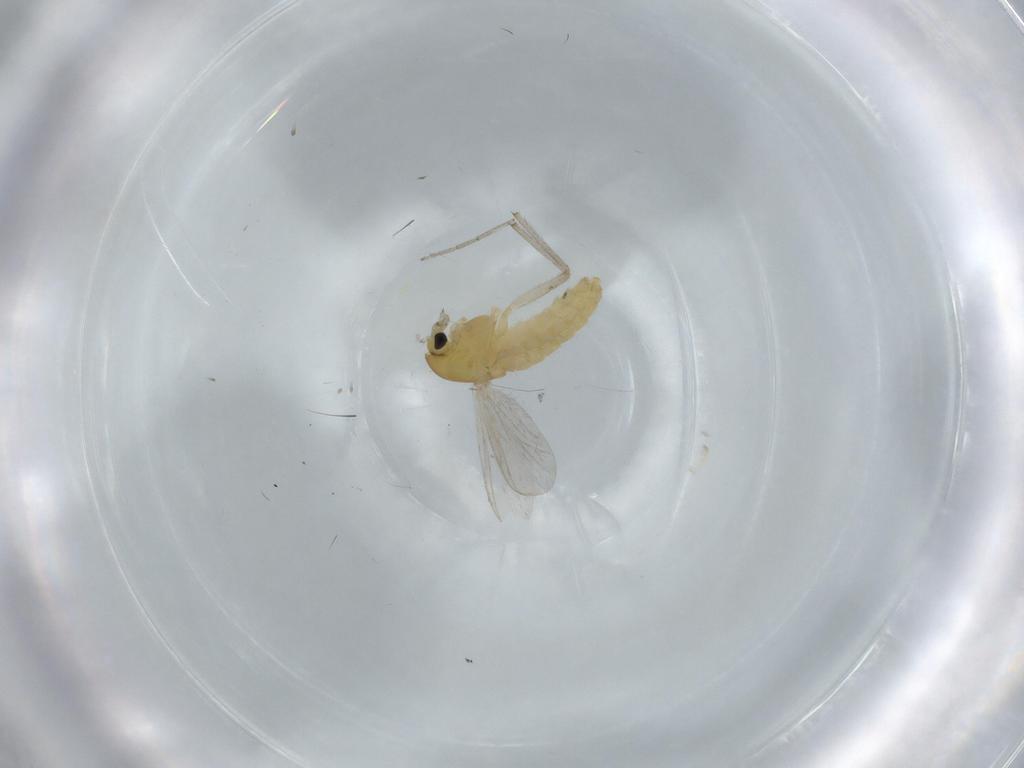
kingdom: Animalia
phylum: Arthropoda
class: Insecta
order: Diptera
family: Chironomidae
